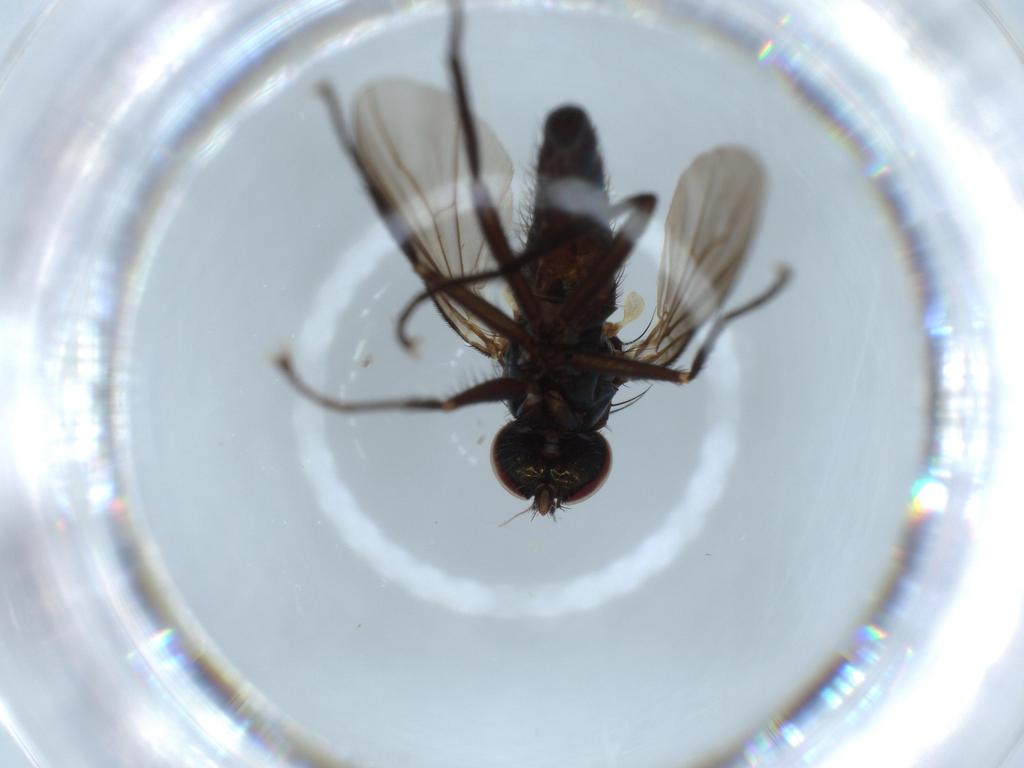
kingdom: Animalia
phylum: Arthropoda
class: Insecta
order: Diptera
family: Dolichopodidae
